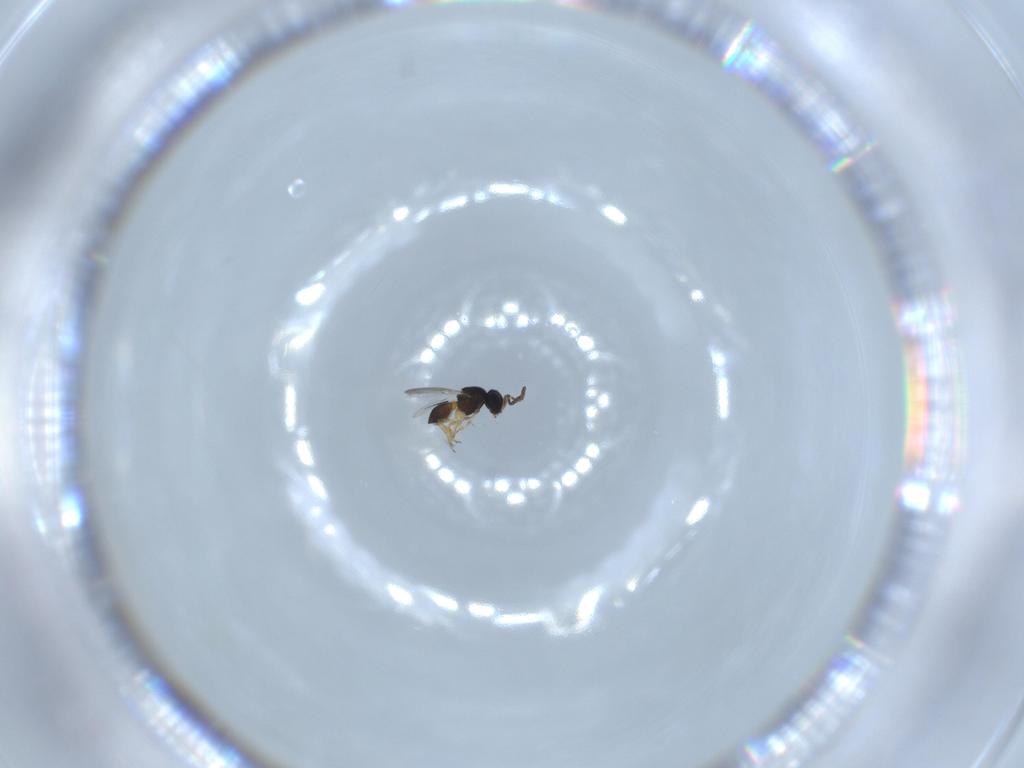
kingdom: Animalia
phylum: Arthropoda
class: Insecta
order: Hymenoptera
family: Scelionidae
